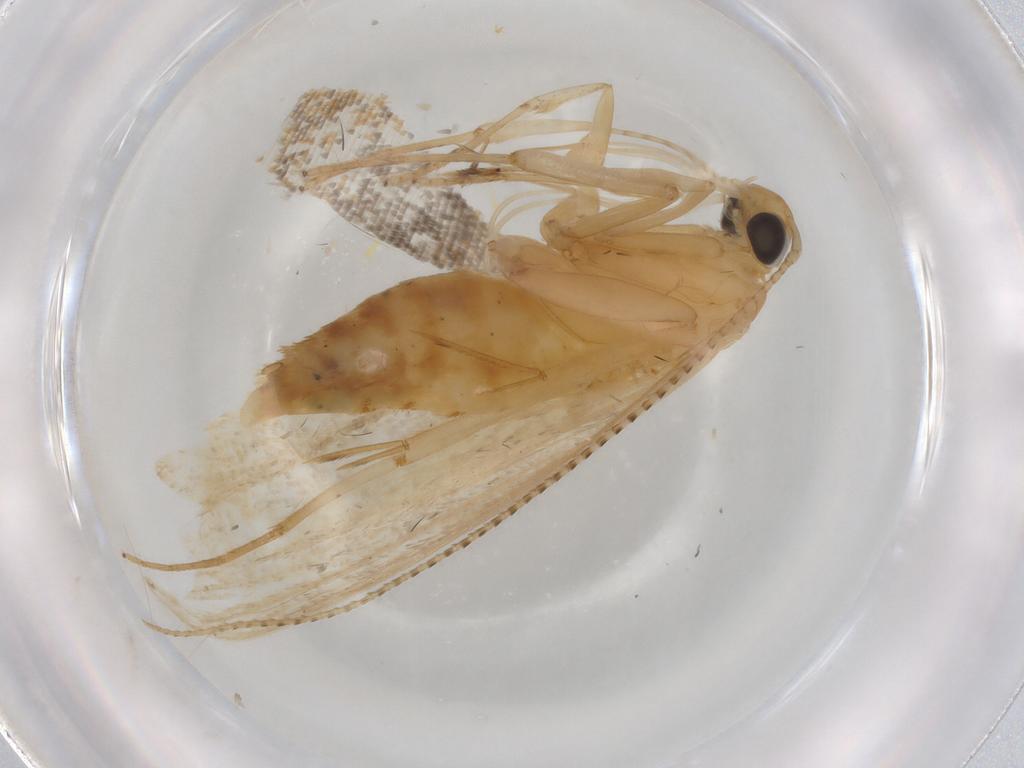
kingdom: Animalia
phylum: Arthropoda
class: Insecta
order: Lepidoptera
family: Lecithoceridae
